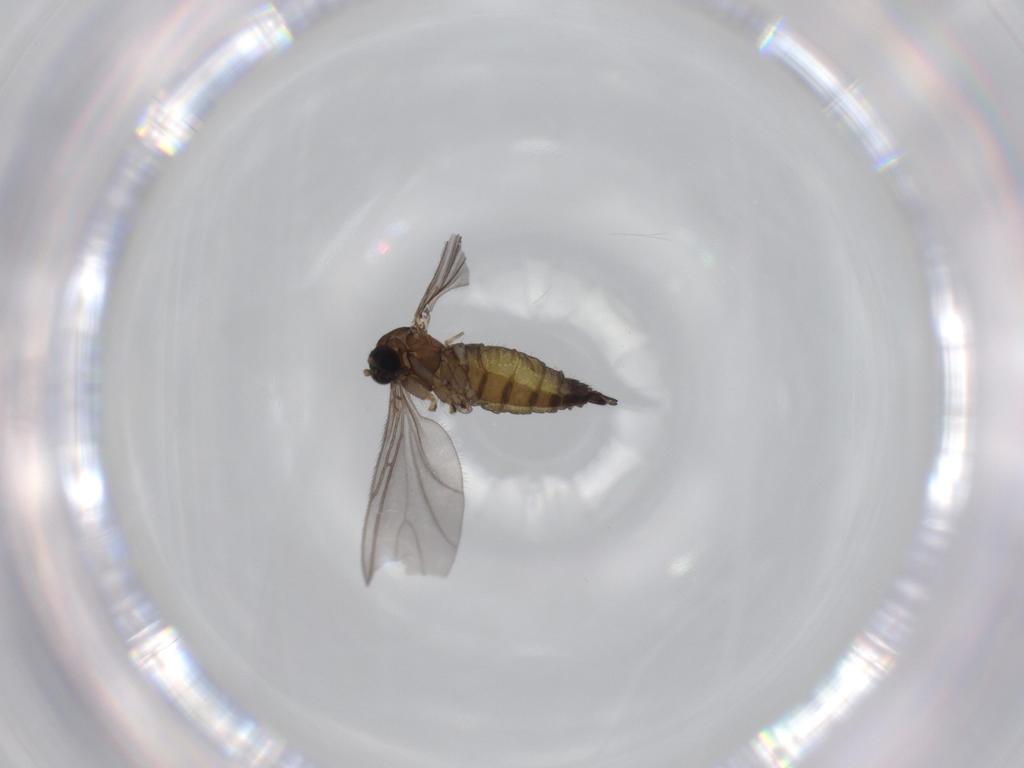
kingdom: Animalia
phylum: Arthropoda
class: Insecta
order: Diptera
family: Sciaridae
